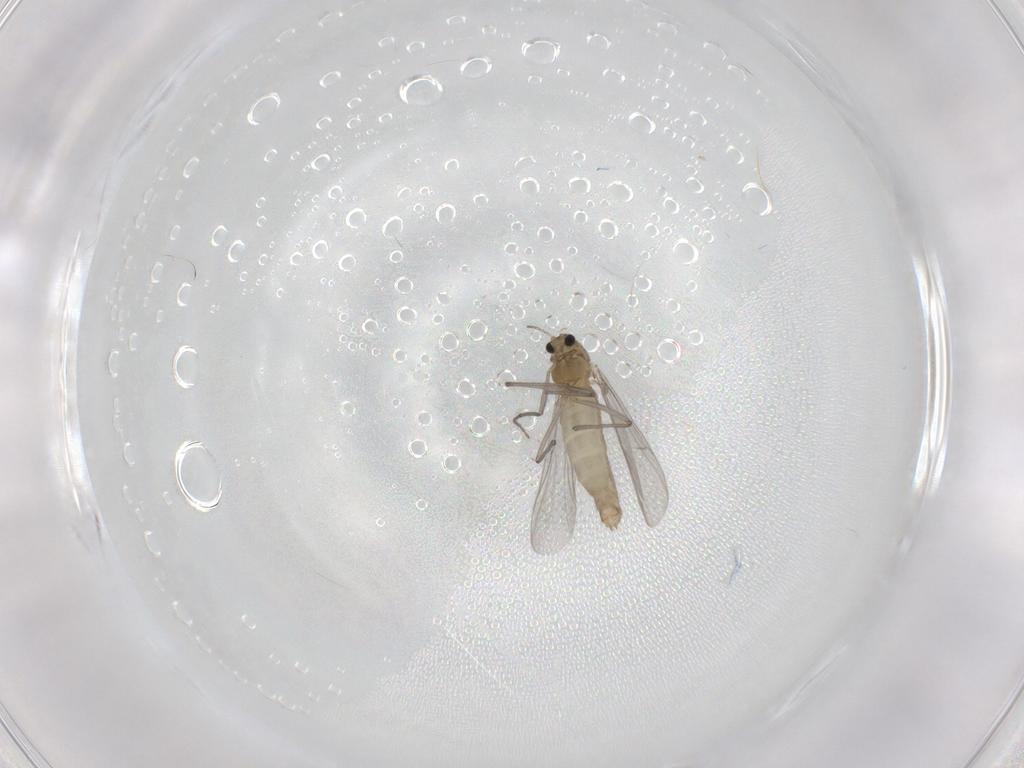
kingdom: Animalia
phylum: Arthropoda
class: Insecta
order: Diptera
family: Chironomidae
